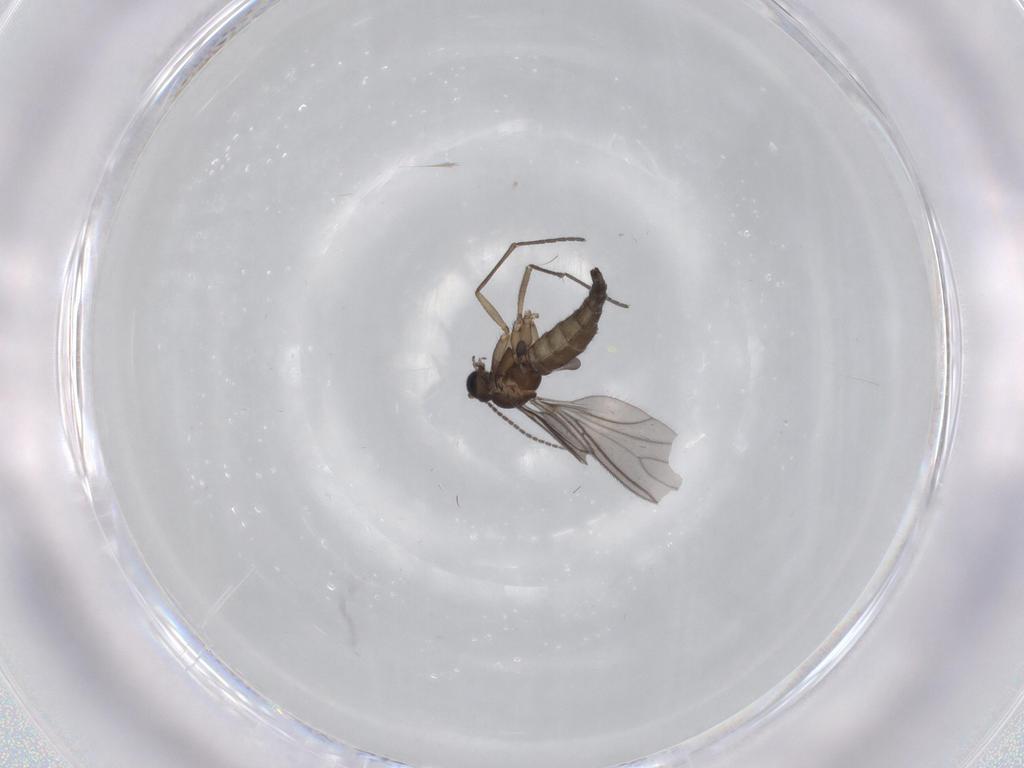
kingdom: Animalia
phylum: Arthropoda
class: Insecta
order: Diptera
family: Sciaridae
